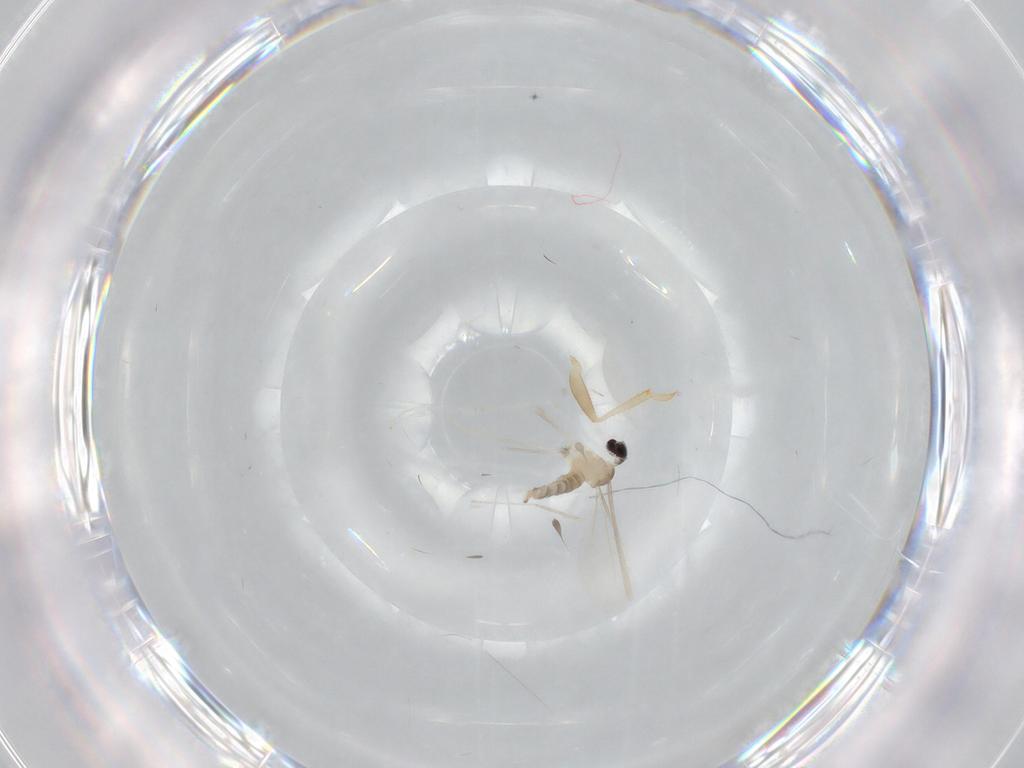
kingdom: Animalia
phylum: Arthropoda
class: Insecta
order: Diptera
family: Cecidomyiidae
